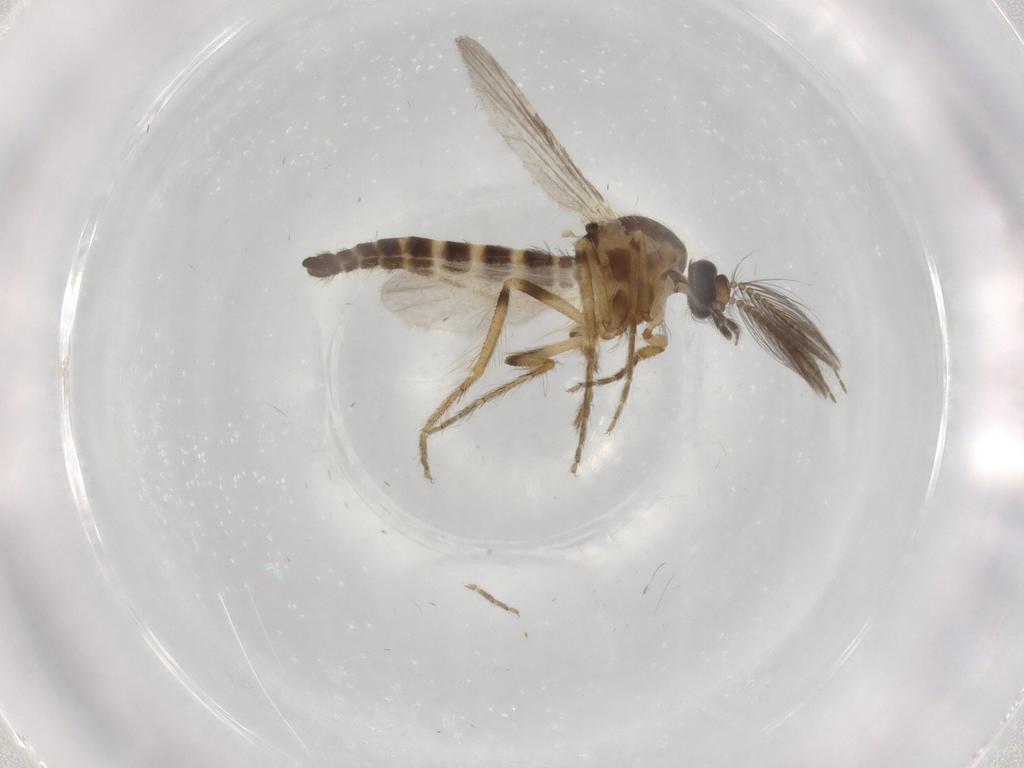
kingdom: Animalia
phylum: Arthropoda
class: Insecta
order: Diptera
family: Ceratopogonidae
